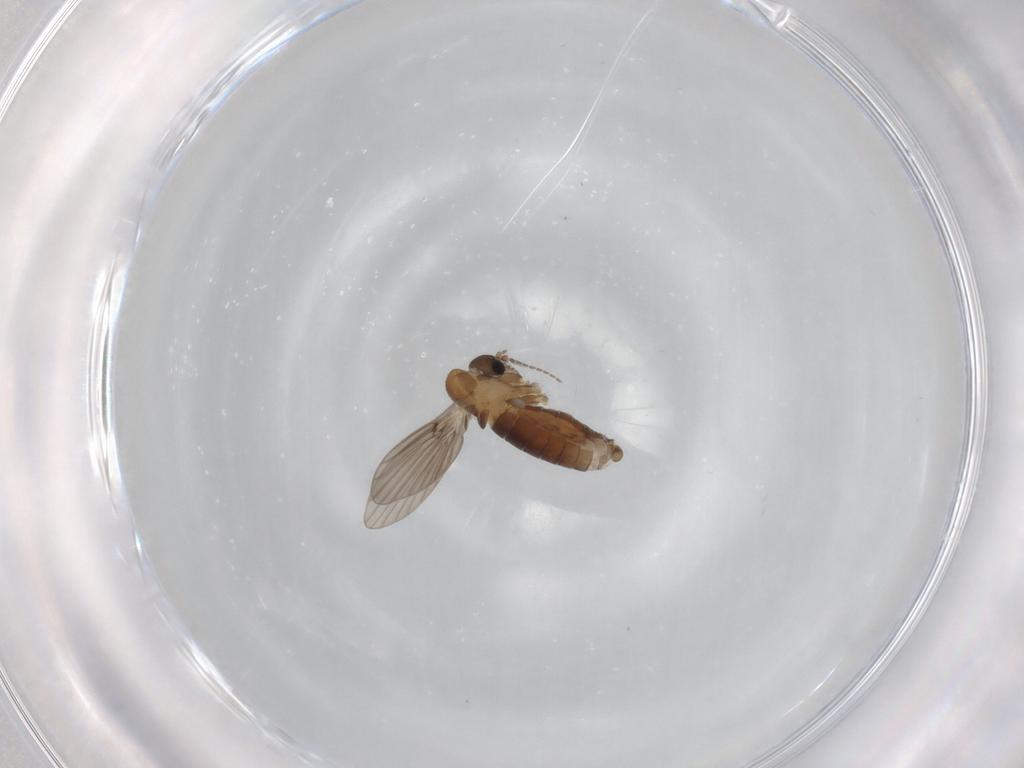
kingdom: Animalia
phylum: Arthropoda
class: Insecta
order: Diptera
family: Psychodidae
